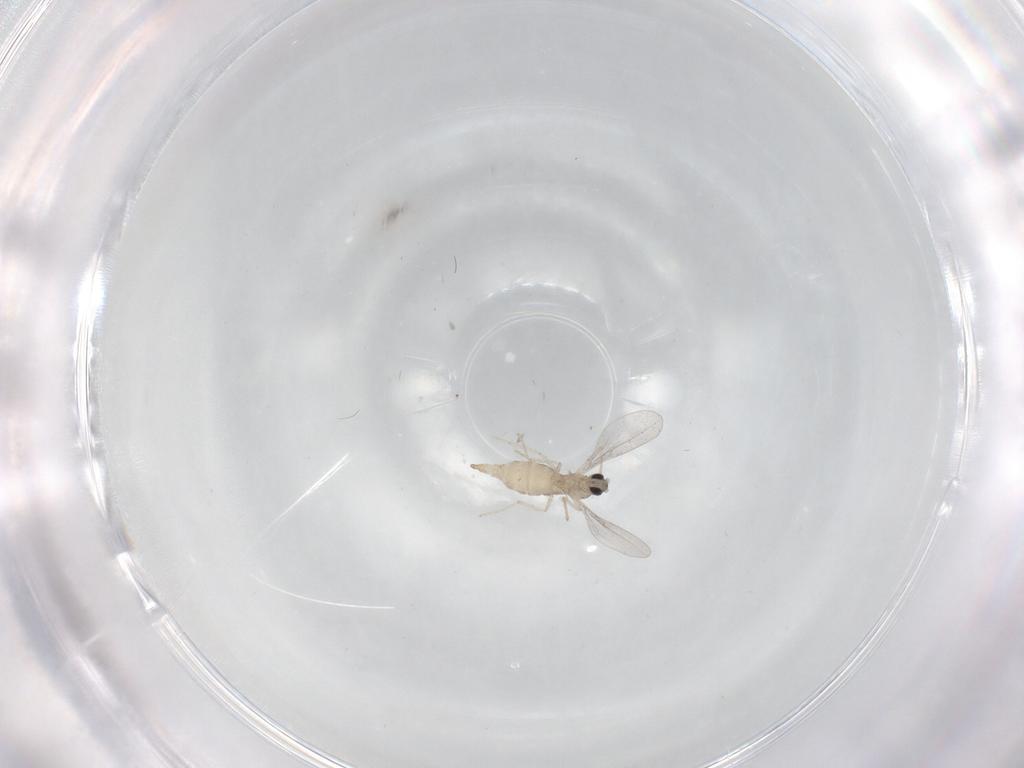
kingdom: Animalia
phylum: Arthropoda
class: Insecta
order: Diptera
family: Cecidomyiidae
